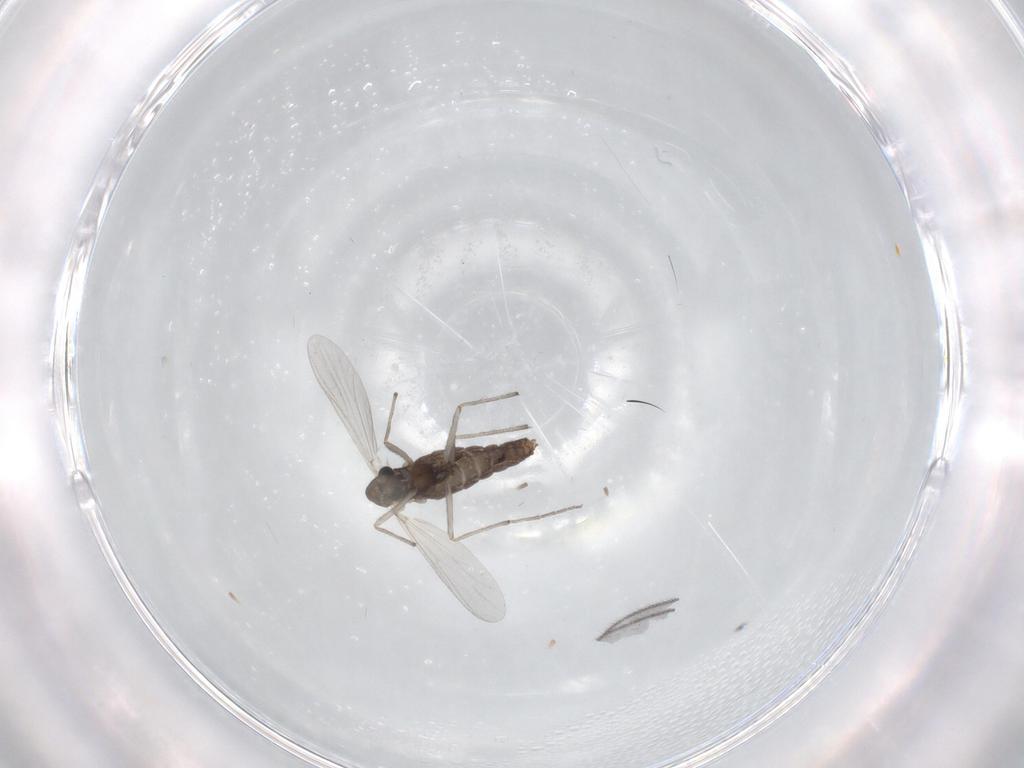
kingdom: Animalia
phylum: Arthropoda
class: Insecta
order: Diptera
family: Chironomidae
